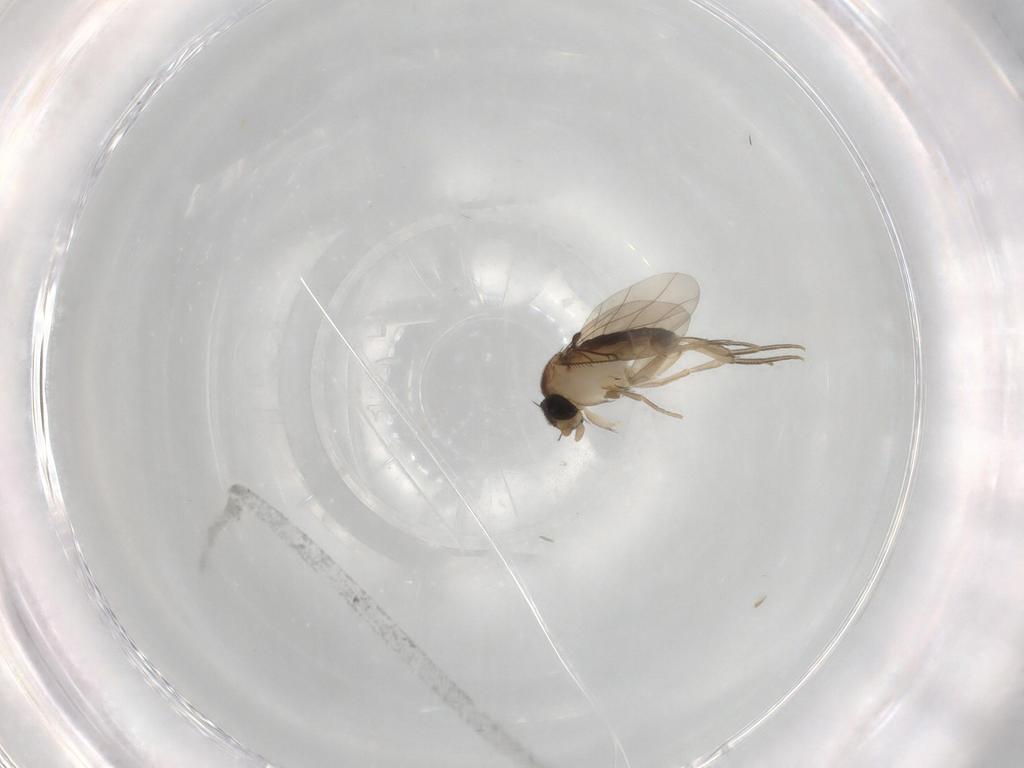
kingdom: Animalia
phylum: Arthropoda
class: Insecta
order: Diptera
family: Phoridae
